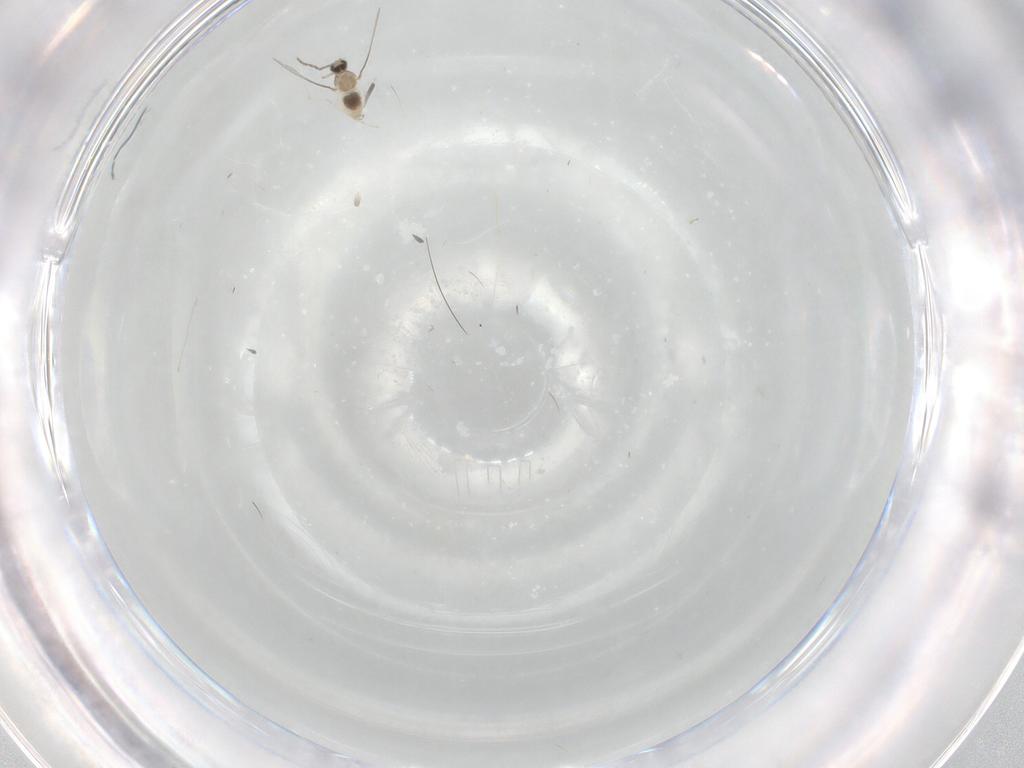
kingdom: Animalia
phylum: Arthropoda
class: Insecta
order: Diptera
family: Cecidomyiidae
